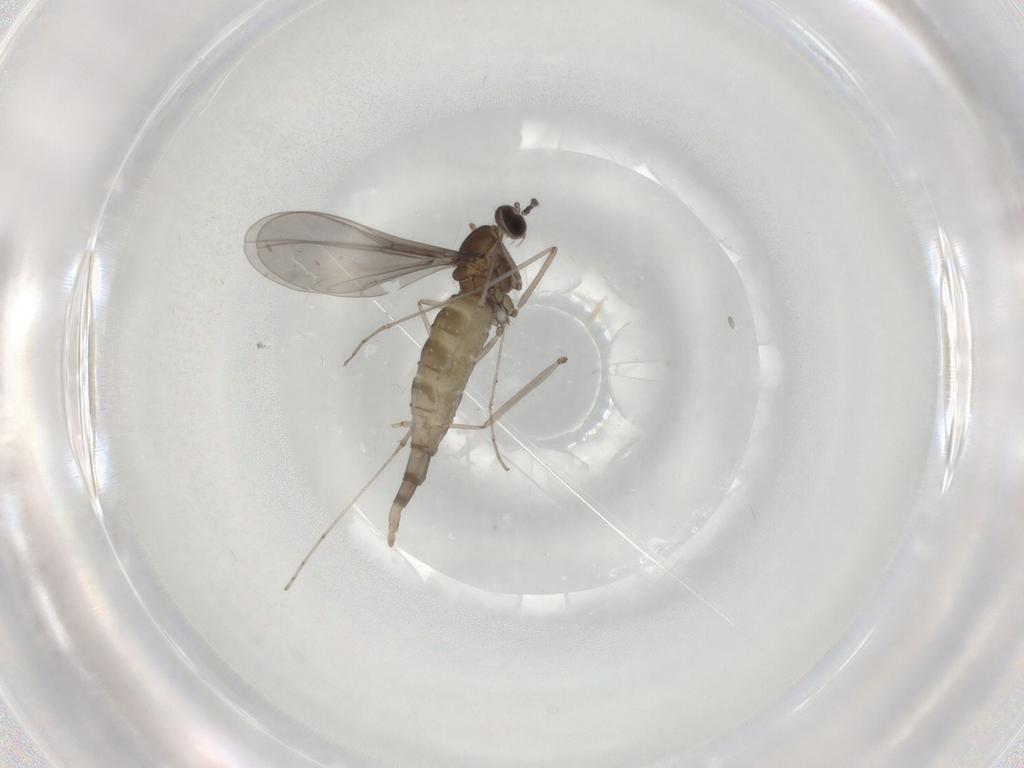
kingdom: Animalia
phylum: Arthropoda
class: Insecta
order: Diptera
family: Cecidomyiidae
